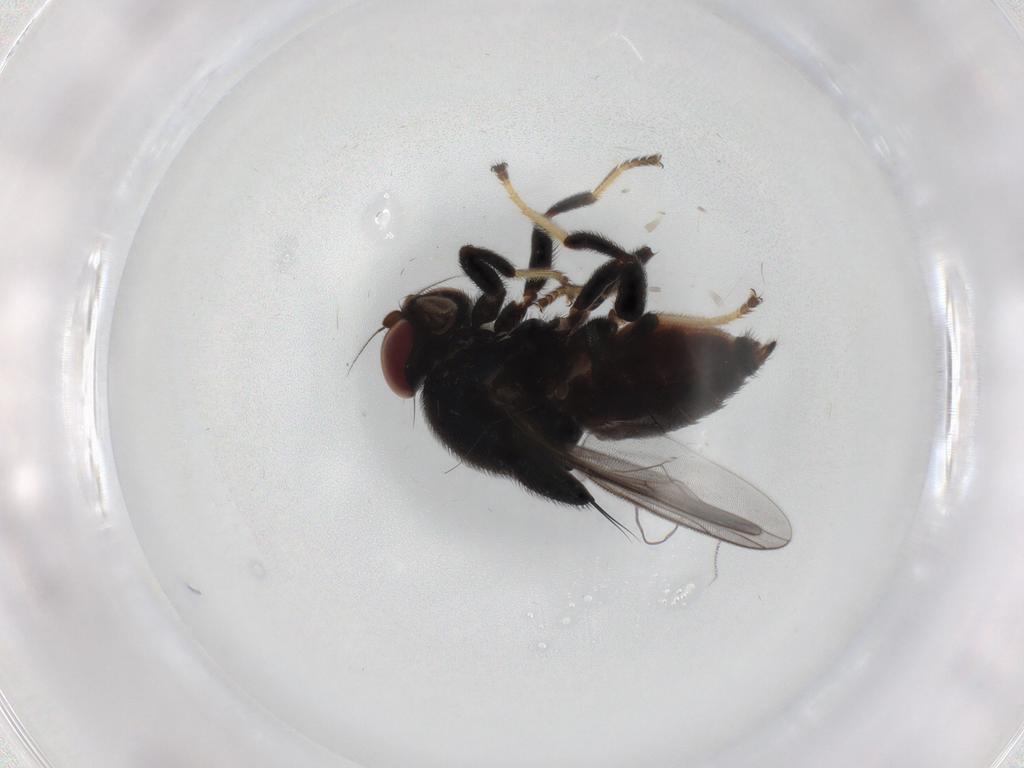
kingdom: Animalia
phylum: Arthropoda
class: Insecta
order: Diptera
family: Chloropidae
